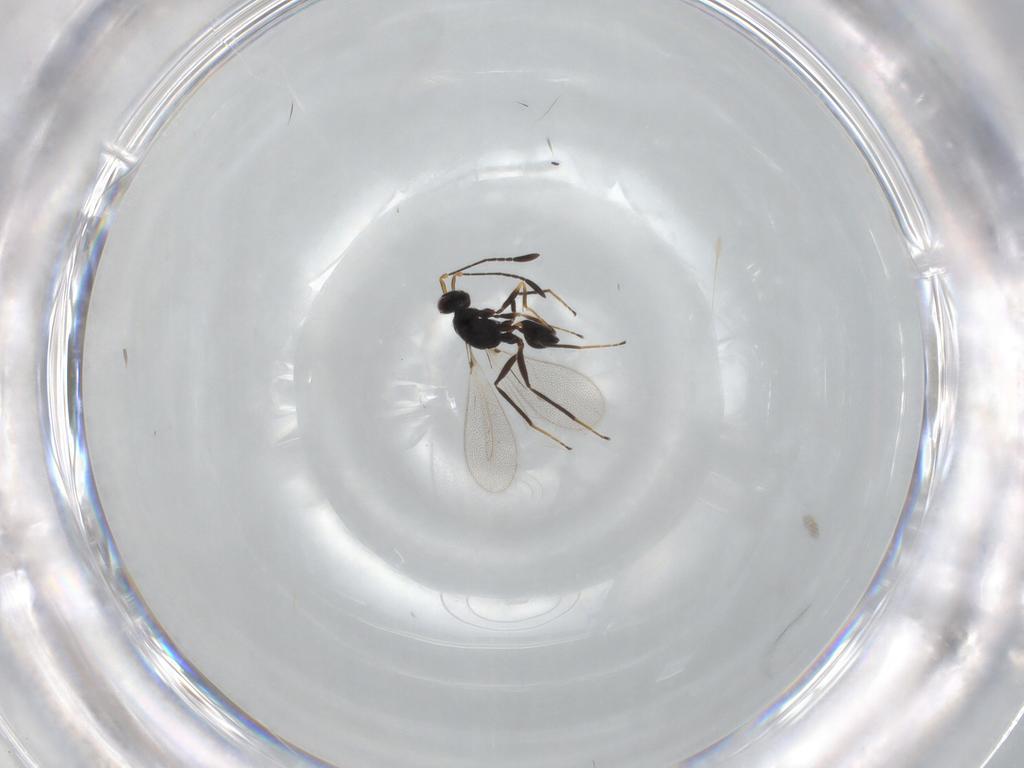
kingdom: Animalia
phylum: Arthropoda
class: Insecta
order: Hymenoptera
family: Mymaridae
